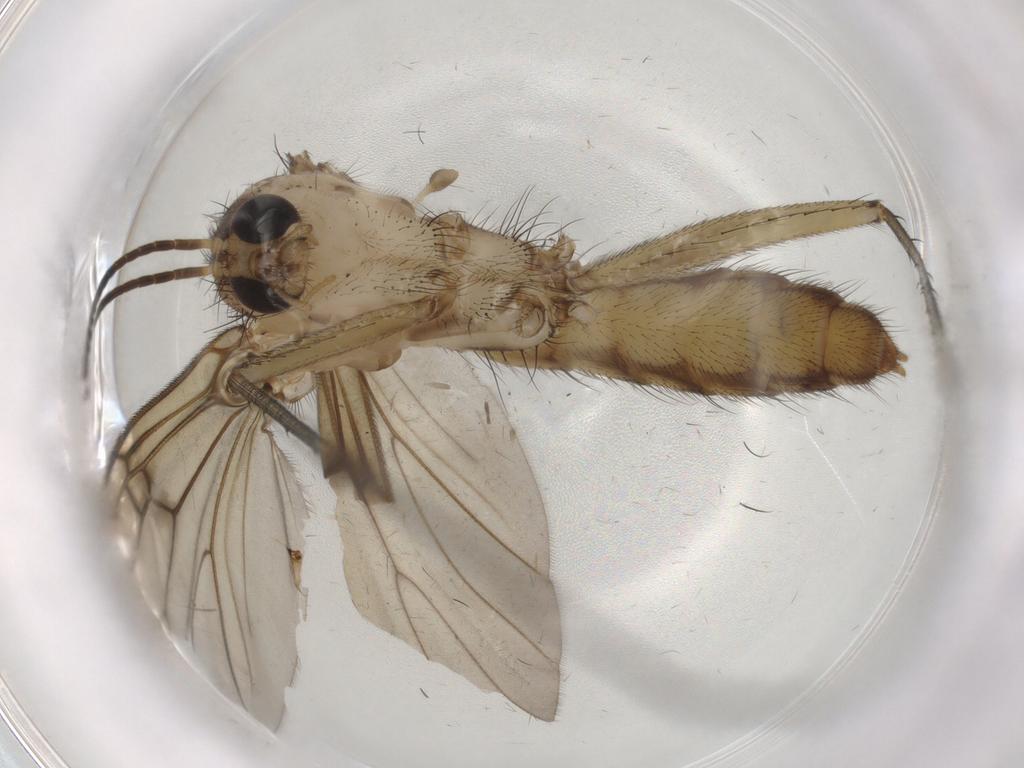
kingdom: Animalia
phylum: Arthropoda
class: Insecta
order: Diptera
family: Sciaridae
